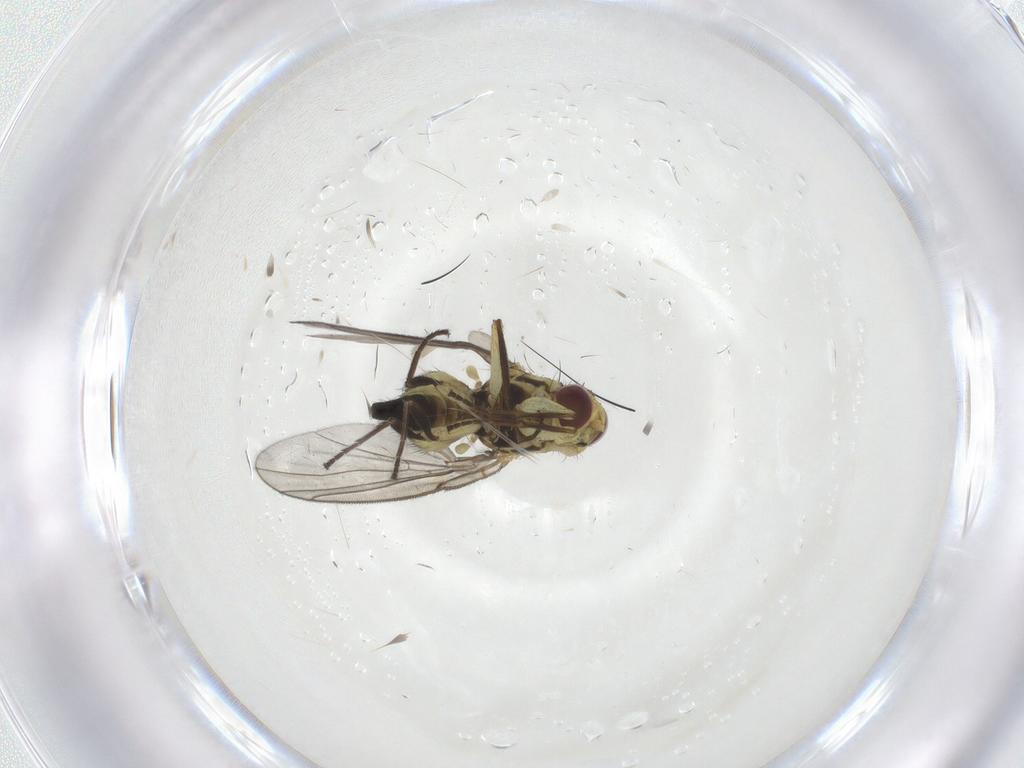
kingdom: Animalia
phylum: Arthropoda
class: Insecta
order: Diptera
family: Agromyzidae
